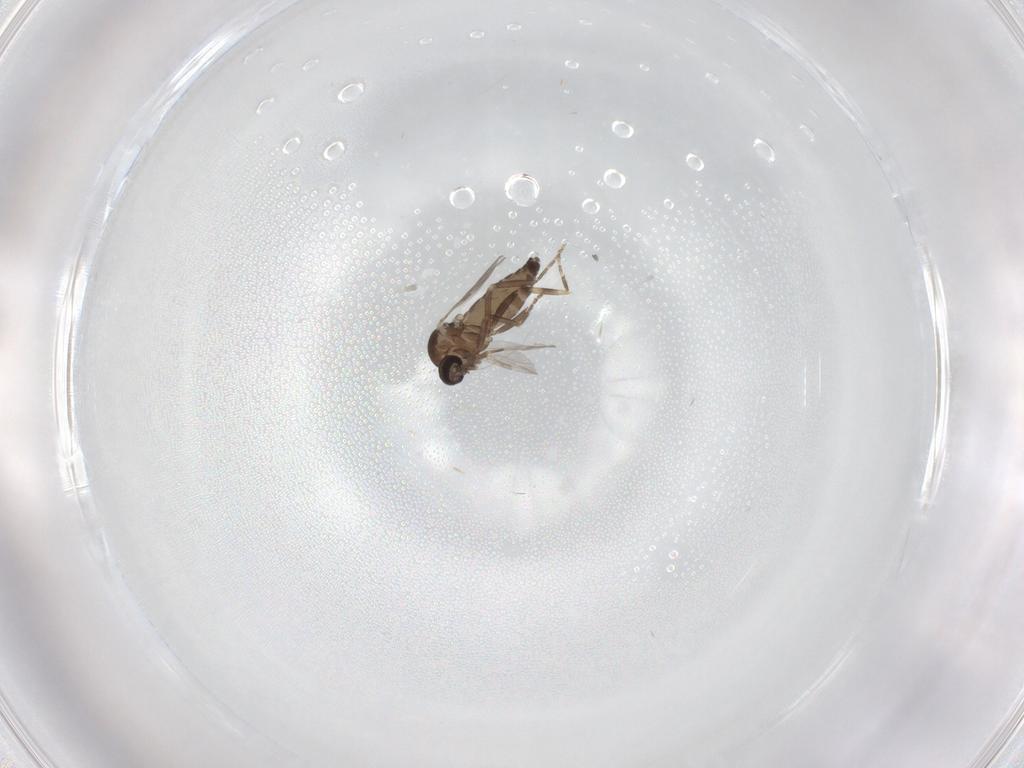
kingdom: Animalia
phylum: Arthropoda
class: Insecta
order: Diptera
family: Ceratopogonidae
